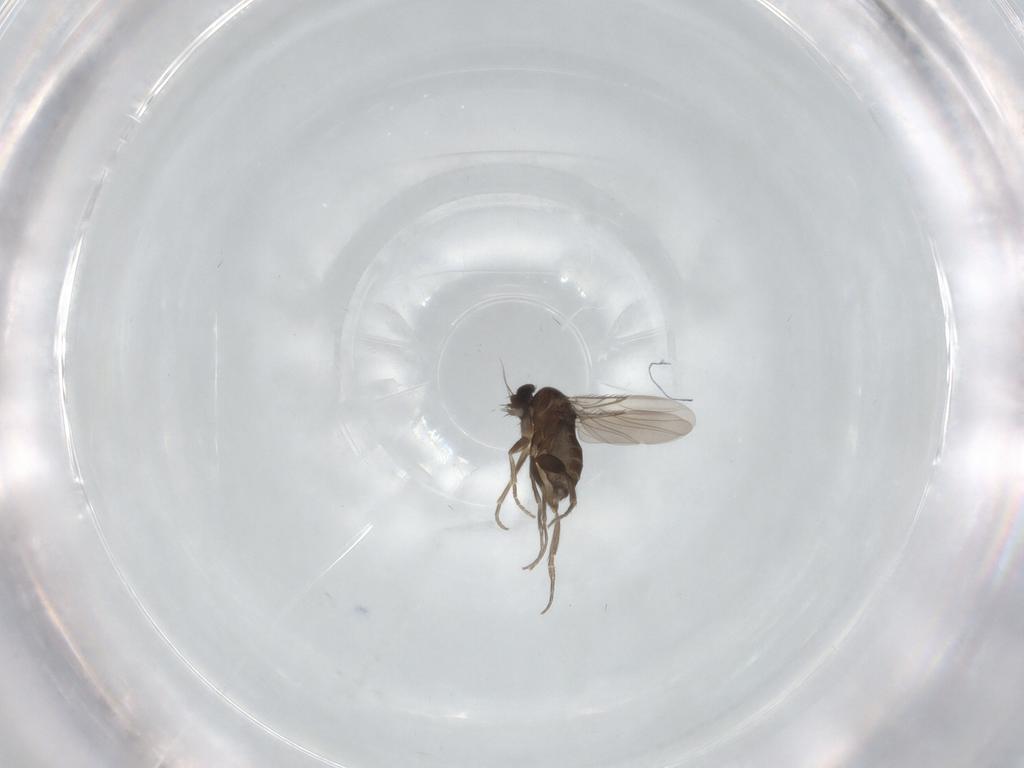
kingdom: Animalia
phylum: Arthropoda
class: Insecta
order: Diptera
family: Phoridae
